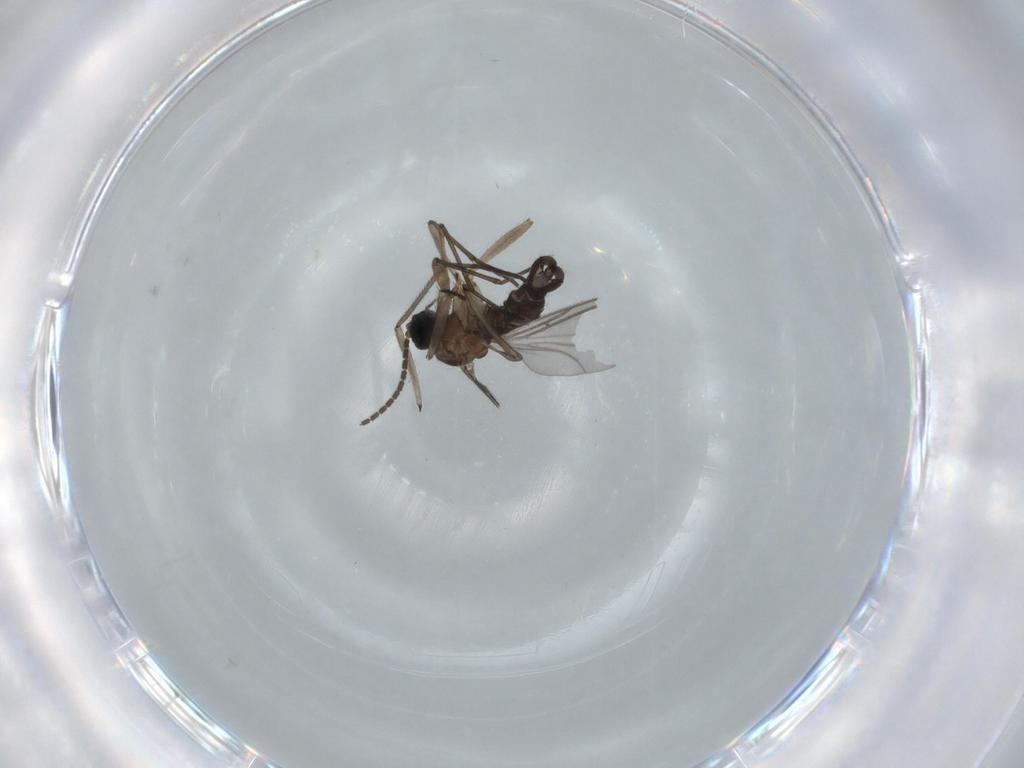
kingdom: Animalia
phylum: Arthropoda
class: Insecta
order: Diptera
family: Sciaridae
